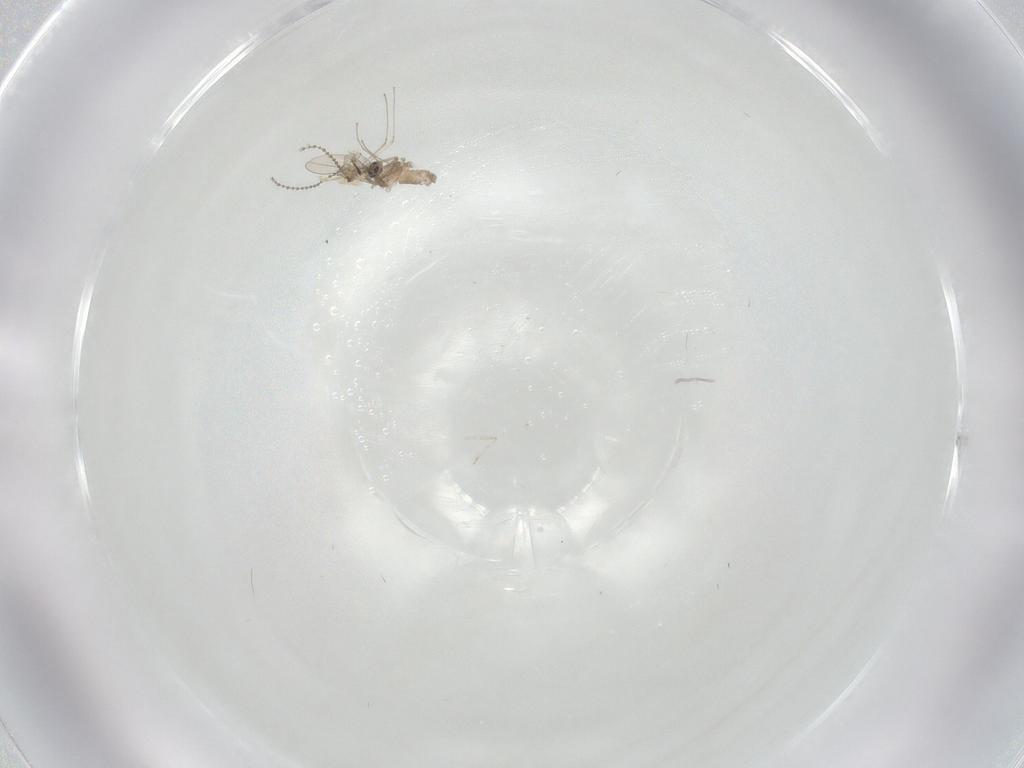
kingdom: Animalia
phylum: Arthropoda
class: Insecta
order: Diptera
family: Cecidomyiidae
